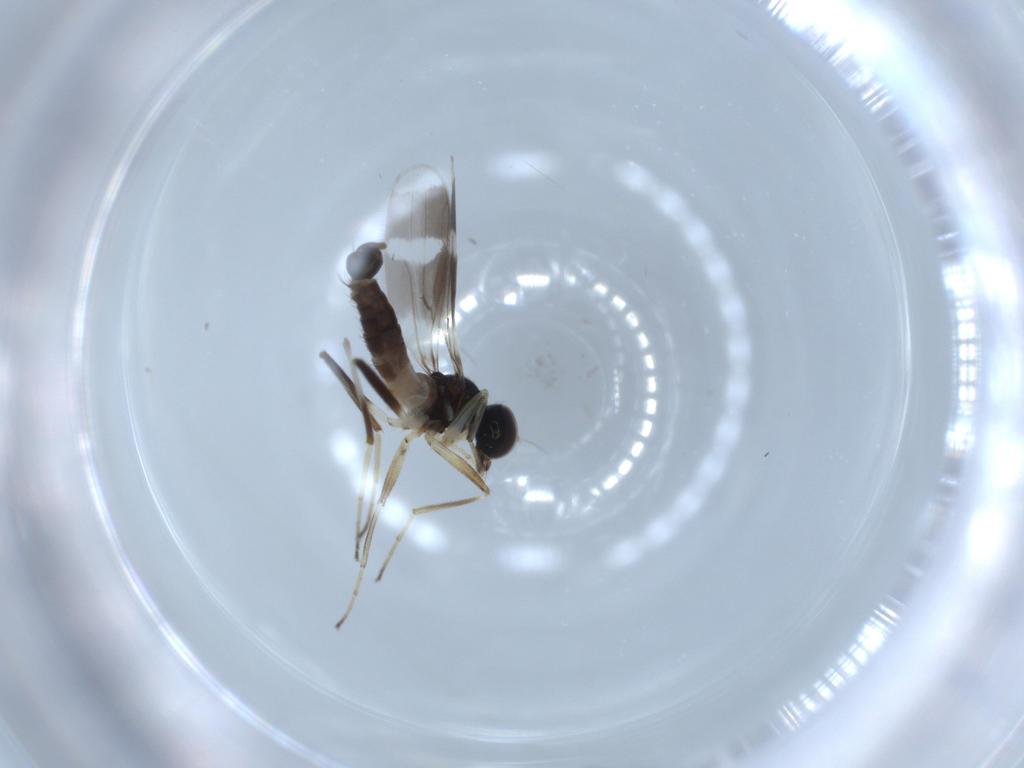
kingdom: Animalia
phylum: Arthropoda
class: Insecta
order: Diptera
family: Hybotidae
